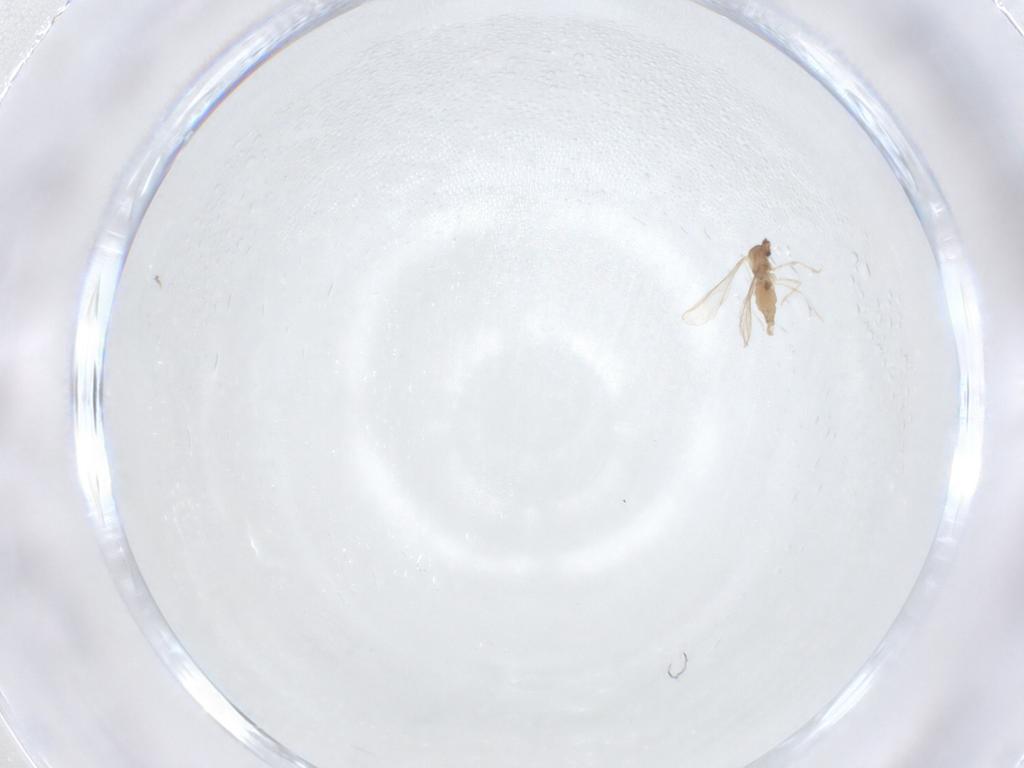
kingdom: Animalia
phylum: Arthropoda
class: Insecta
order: Diptera
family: Cecidomyiidae
